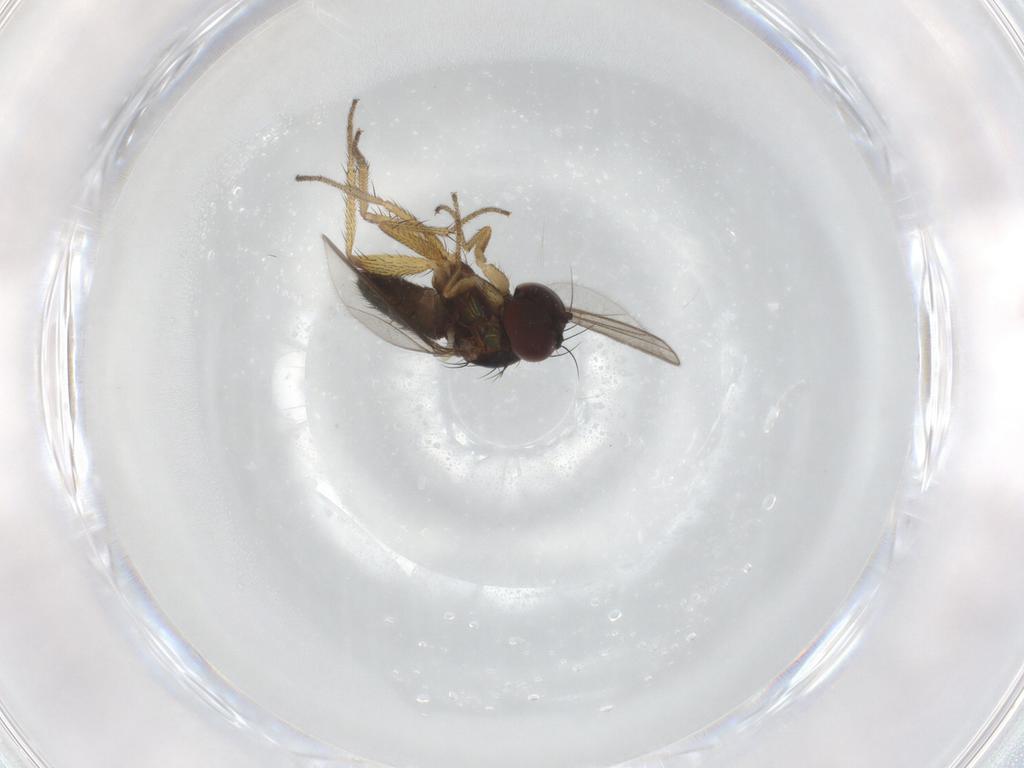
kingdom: Animalia
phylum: Arthropoda
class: Insecta
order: Diptera
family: Dolichopodidae
